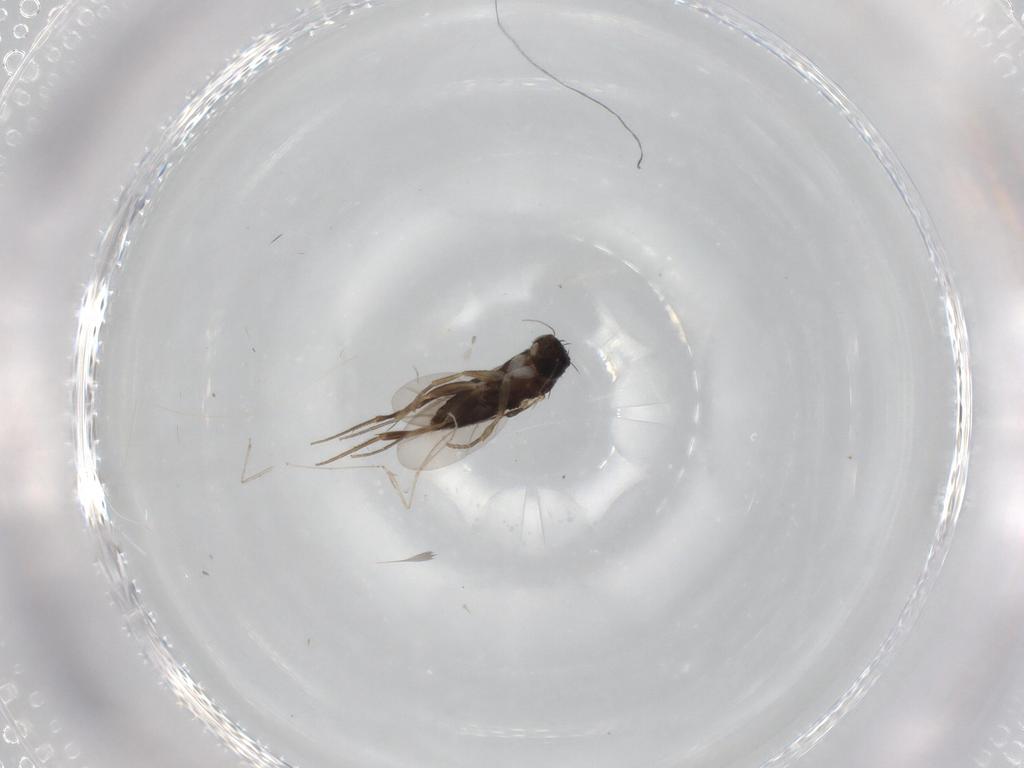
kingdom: Animalia
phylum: Arthropoda
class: Insecta
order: Diptera
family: Phoridae
